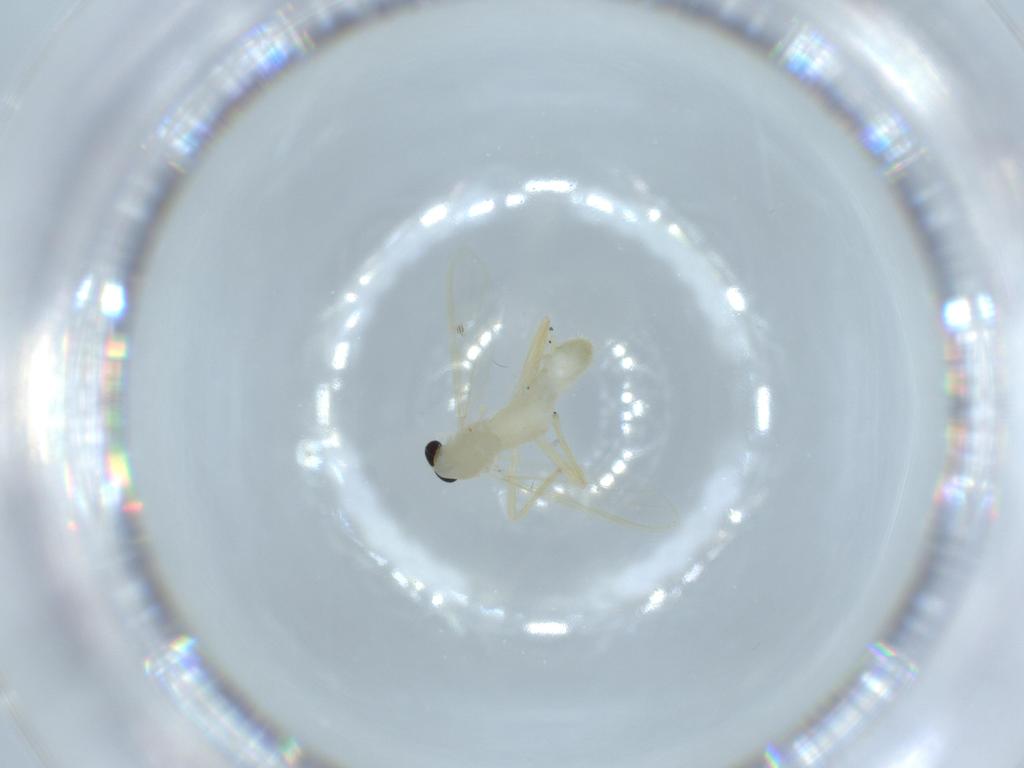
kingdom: Animalia
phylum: Arthropoda
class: Insecta
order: Diptera
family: Chironomidae
